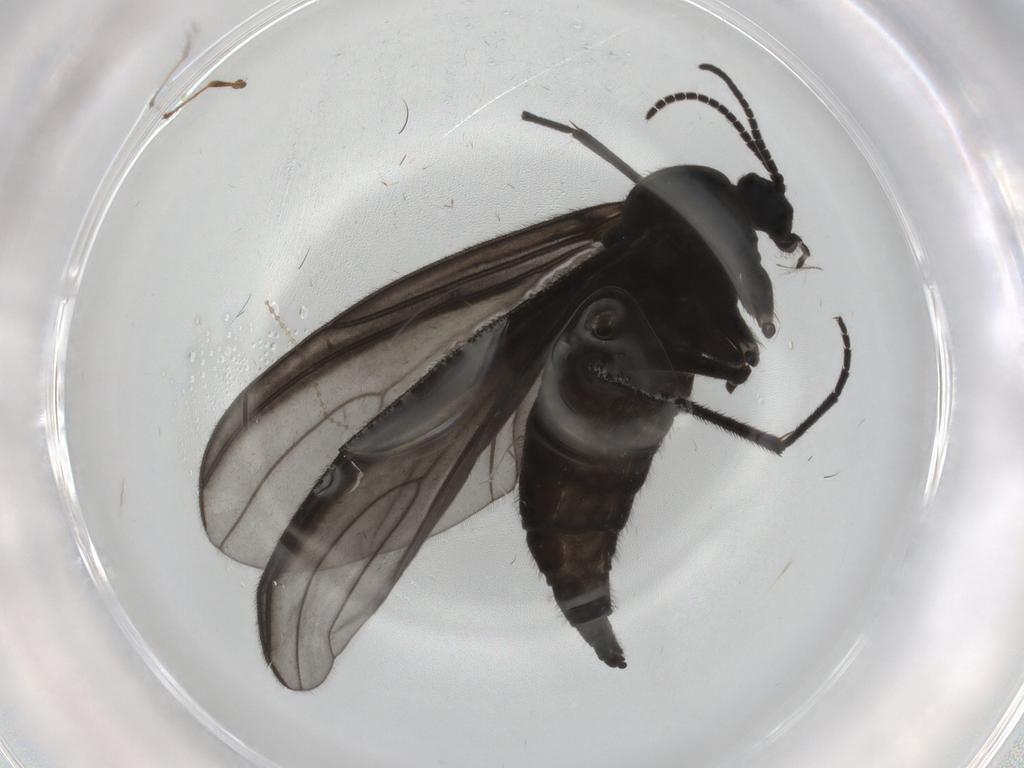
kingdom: Animalia
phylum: Arthropoda
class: Insecta
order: Diptera
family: Sciaridae
